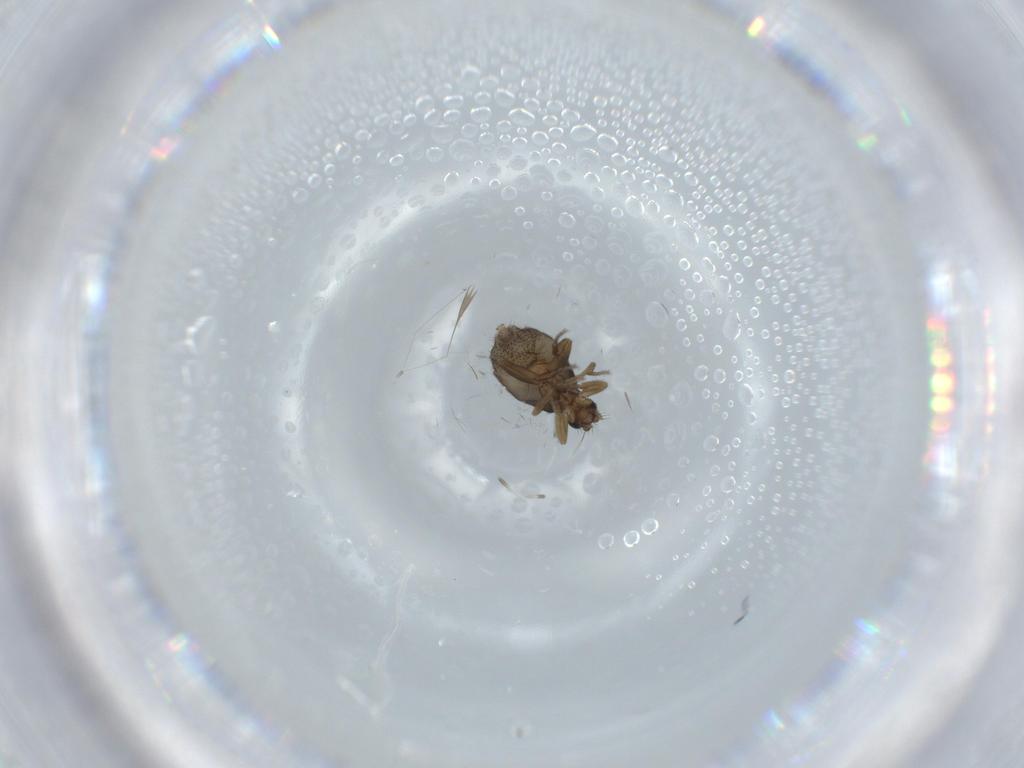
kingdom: Animalia
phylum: Arthropoda
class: Insecta
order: Diptera
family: Phoridae
